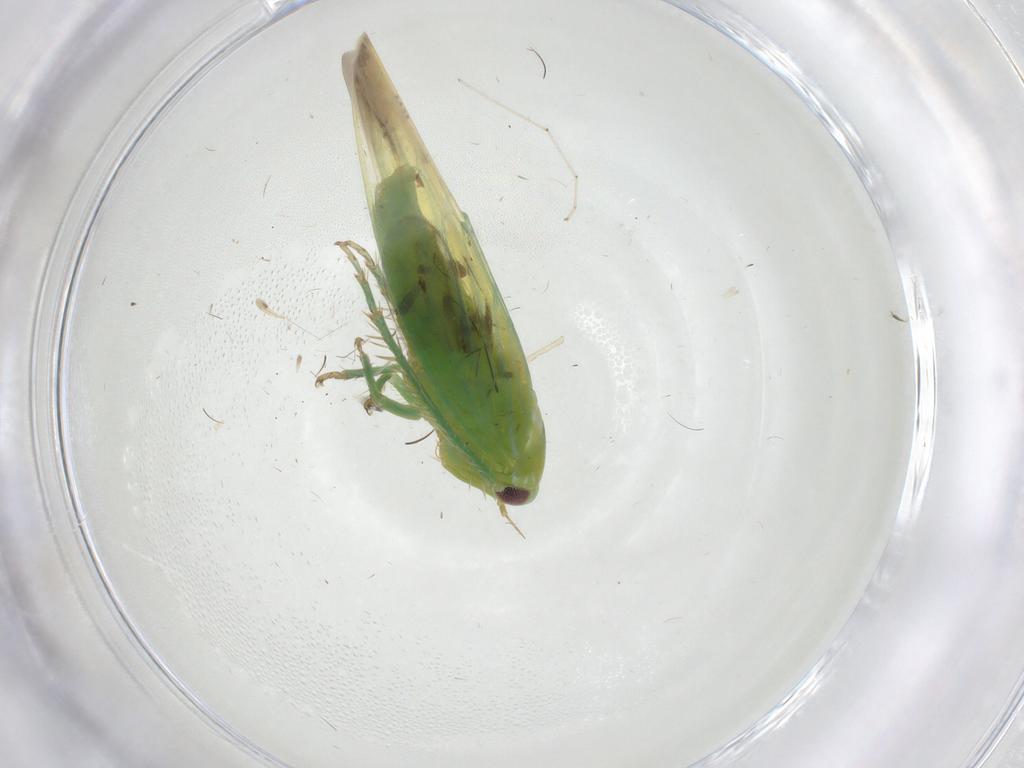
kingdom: Animalia
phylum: Arthropoda
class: Insecta
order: Hemiptera
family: Cicadellidae
